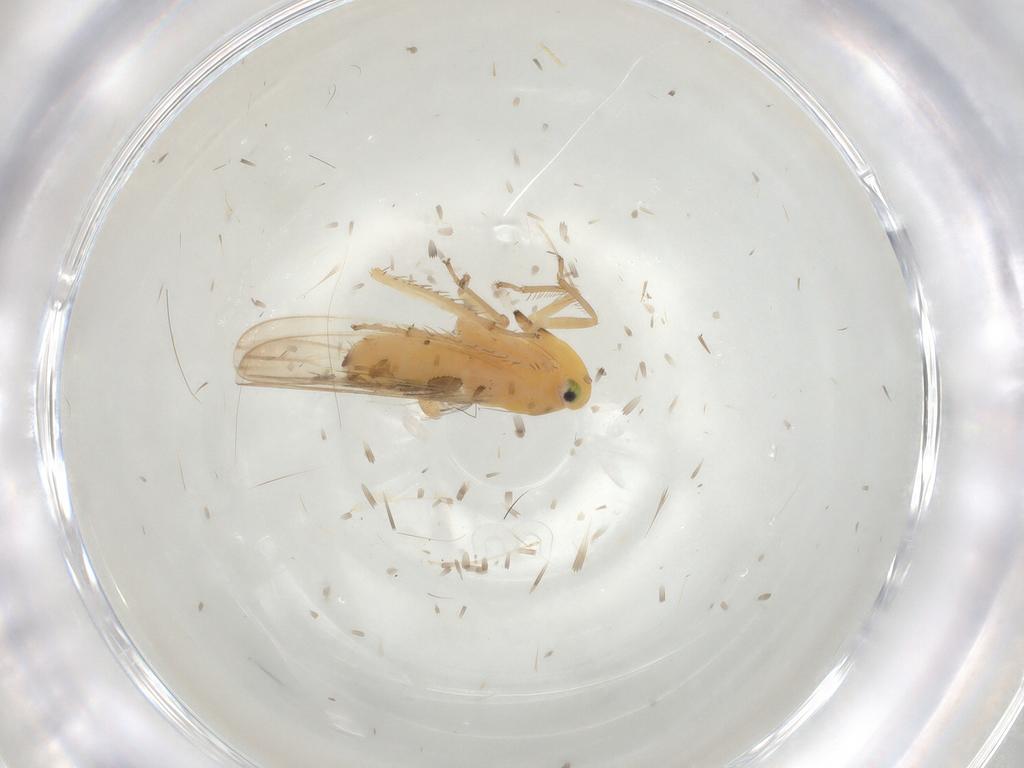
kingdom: Animalia
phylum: Arthropoda
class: Insecta
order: Hemiptera
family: Cicadellidae
